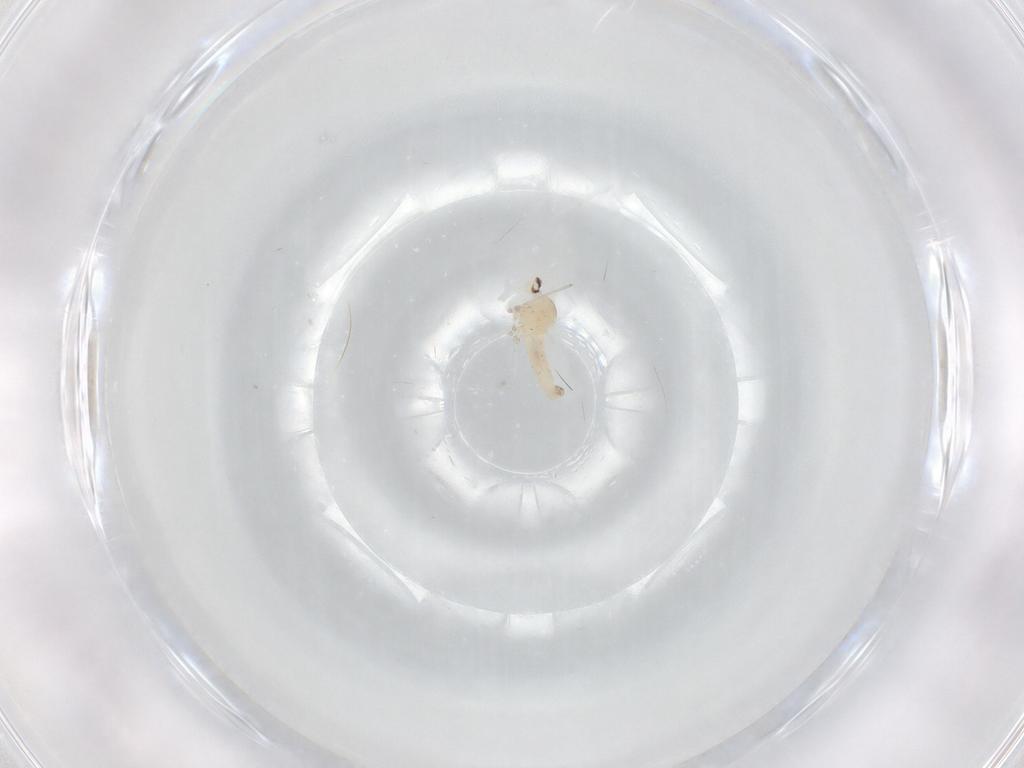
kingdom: Animalia
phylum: Arthropoda
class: Insecta
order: Diptera
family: Cecidomyiidae
